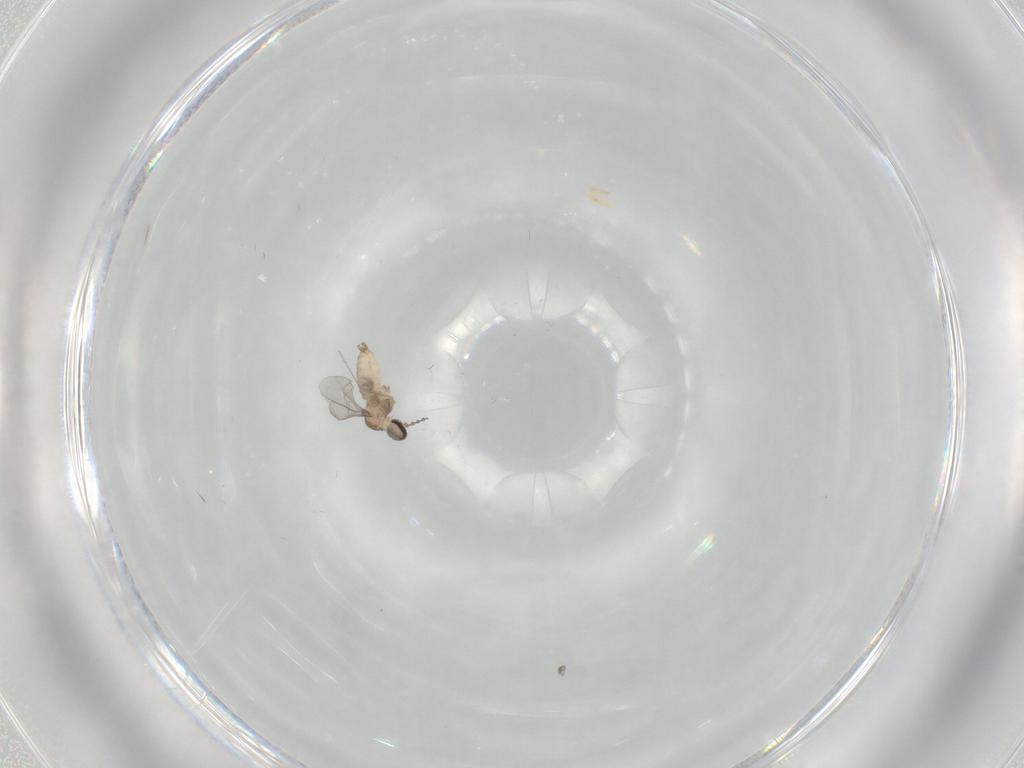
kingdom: Animalia
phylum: Arthropoda
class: Insecta
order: Diptera
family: Cecidomyiidae
